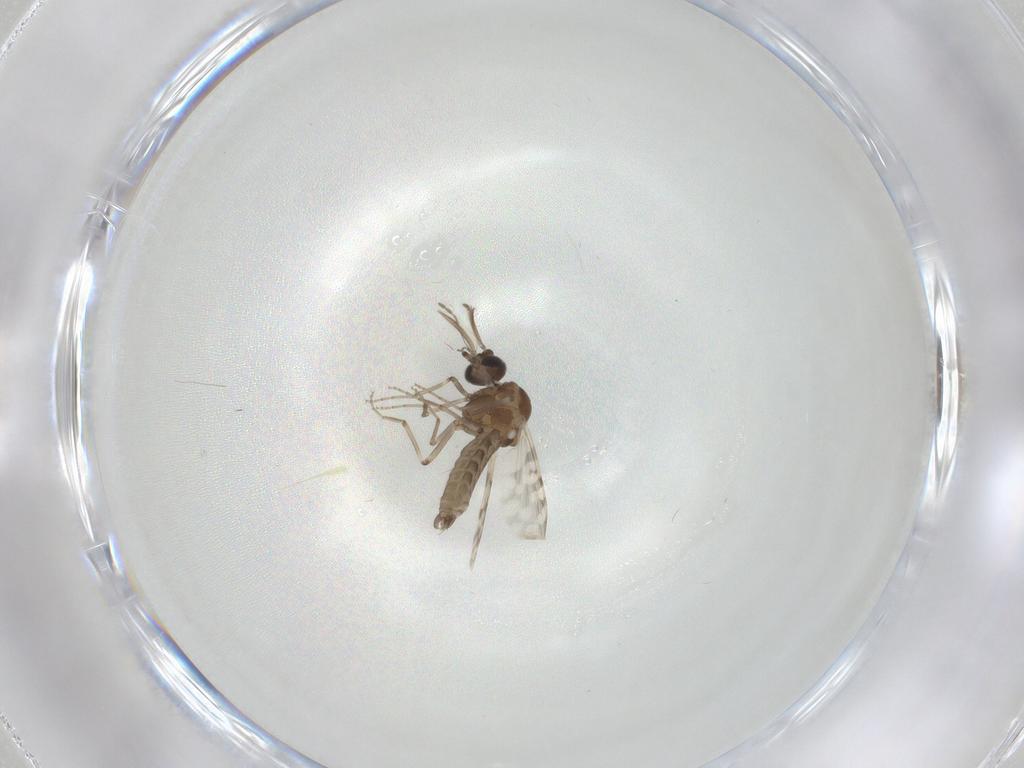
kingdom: Animalia
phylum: Arthropoda
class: Insecta
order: Diptera
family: Chironomidae
